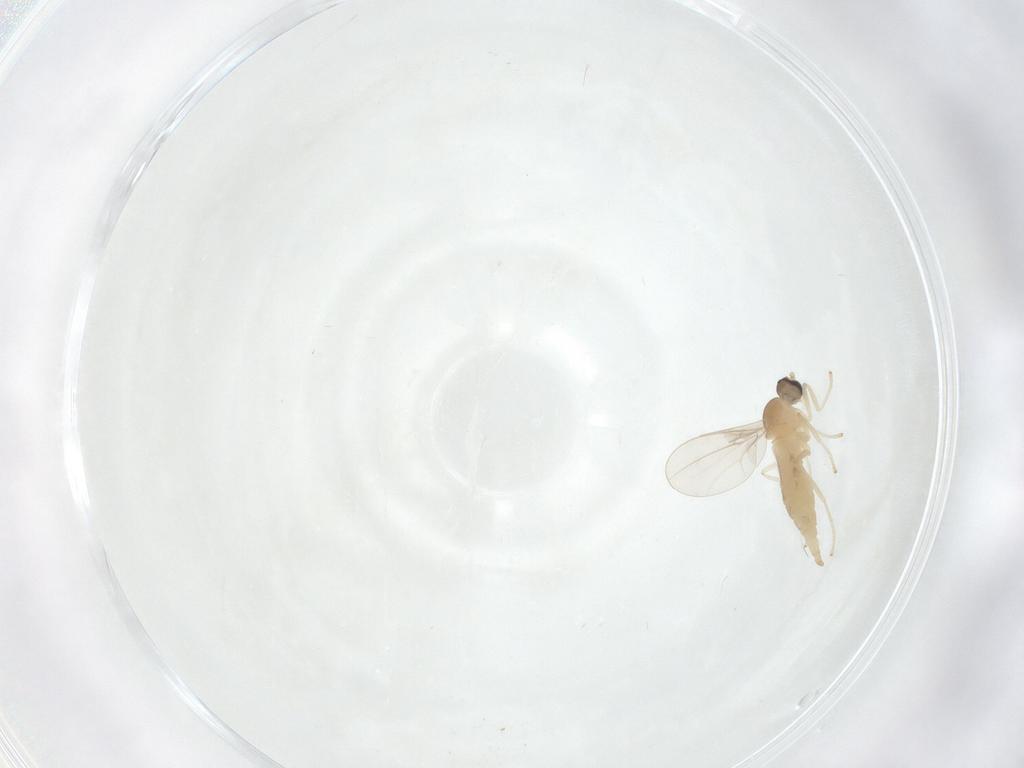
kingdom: Animalia
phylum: Arthropoda
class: Insecta
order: Diptera
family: Cecidomyiidae
